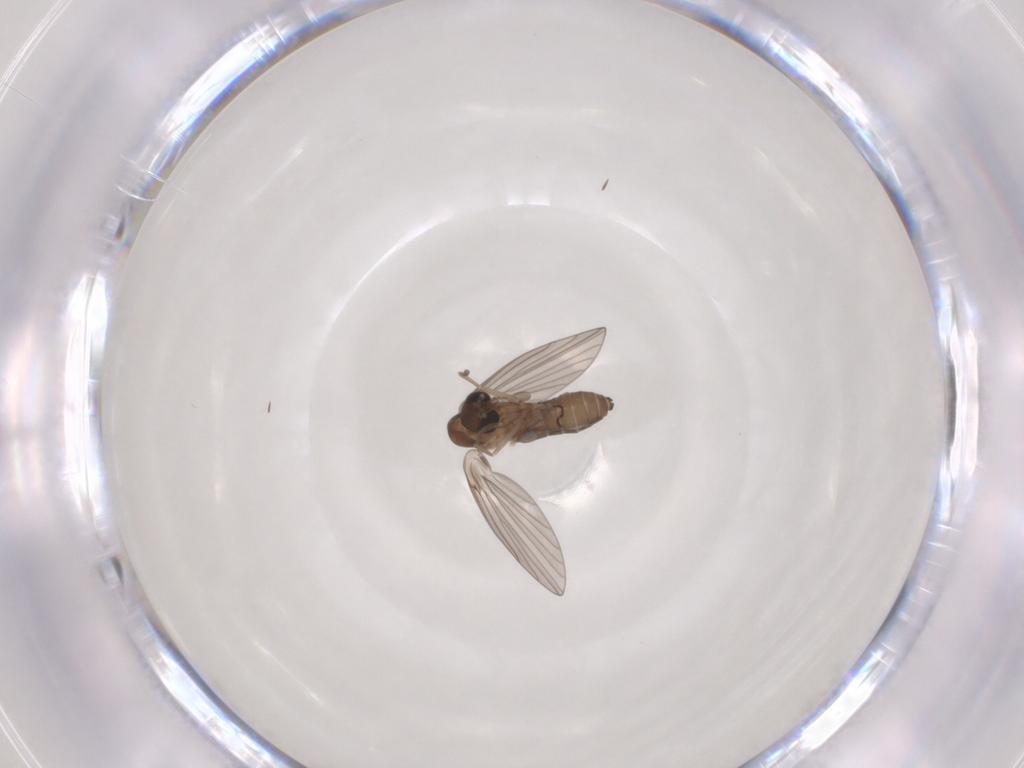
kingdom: Animalia
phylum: Arthropoda
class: Insecta
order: Diptera
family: Psychodidae
